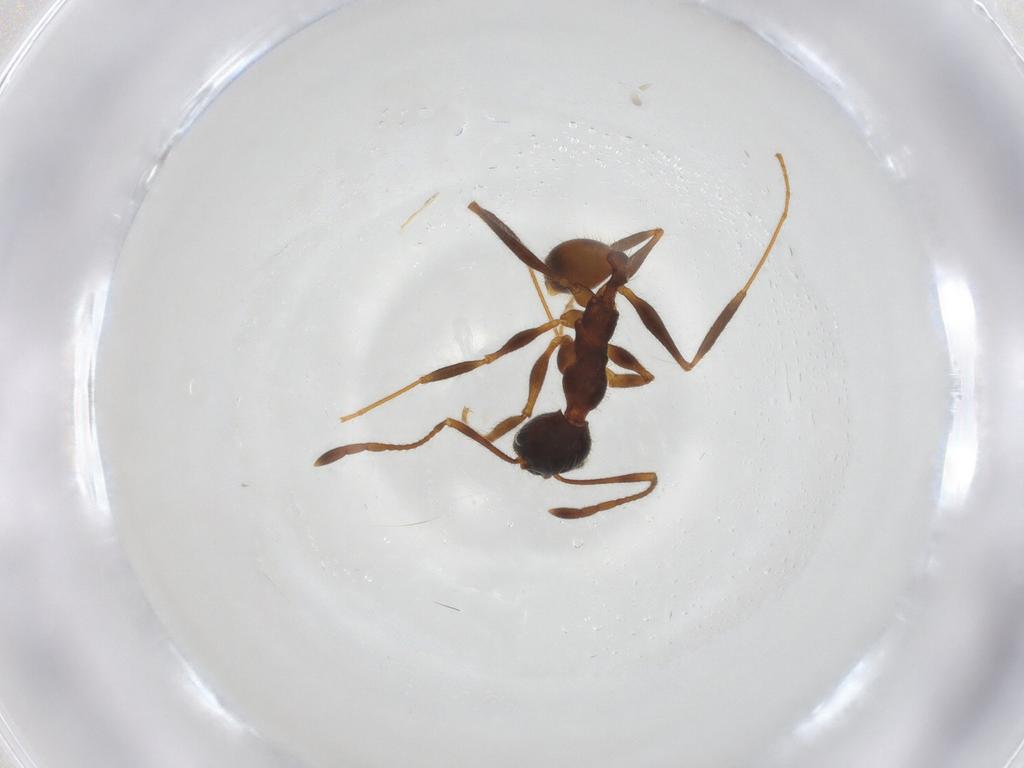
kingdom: Animalia
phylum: Arthropoda
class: Insecta
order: Hymenoptera
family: Formicidae
